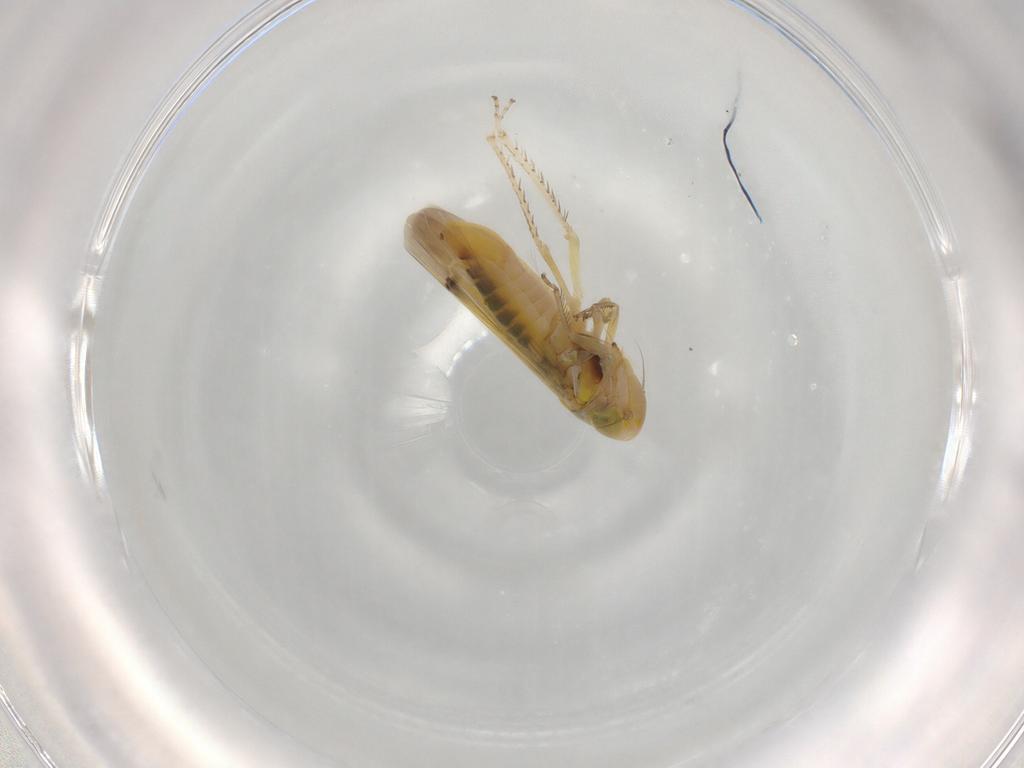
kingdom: Animalia
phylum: Arthropoda
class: Insecta
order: Hemiptera
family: Cicadellidae
